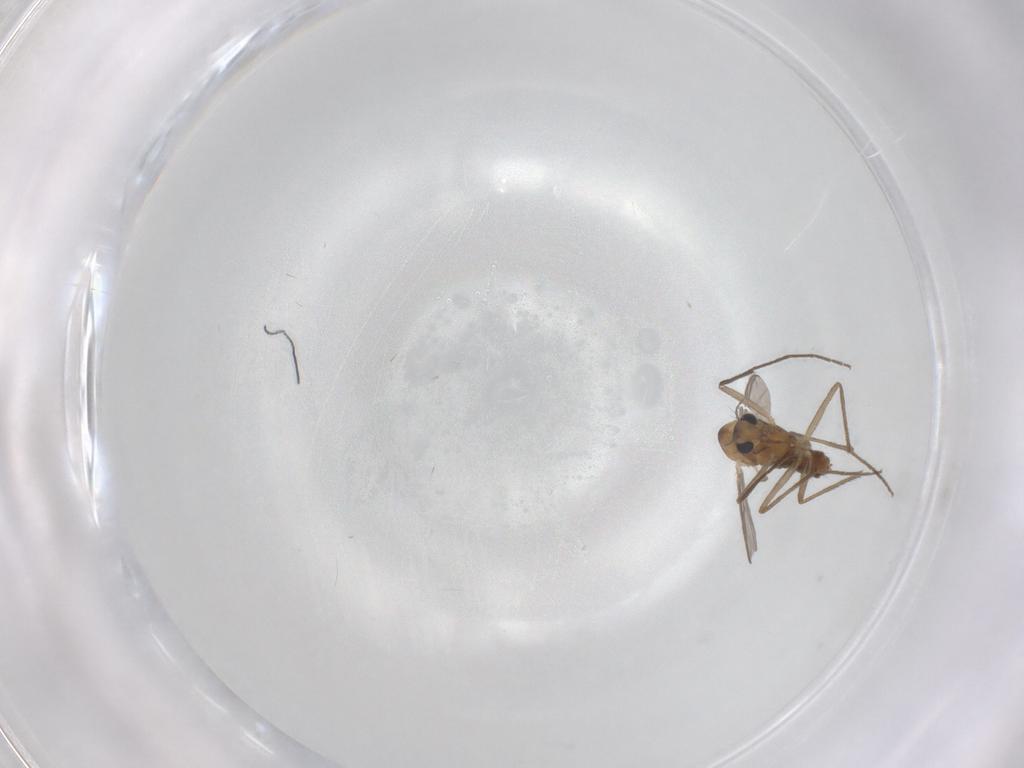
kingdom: Animalia
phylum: Arthropoda
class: Insecta
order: Diptera
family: Chironomidae
